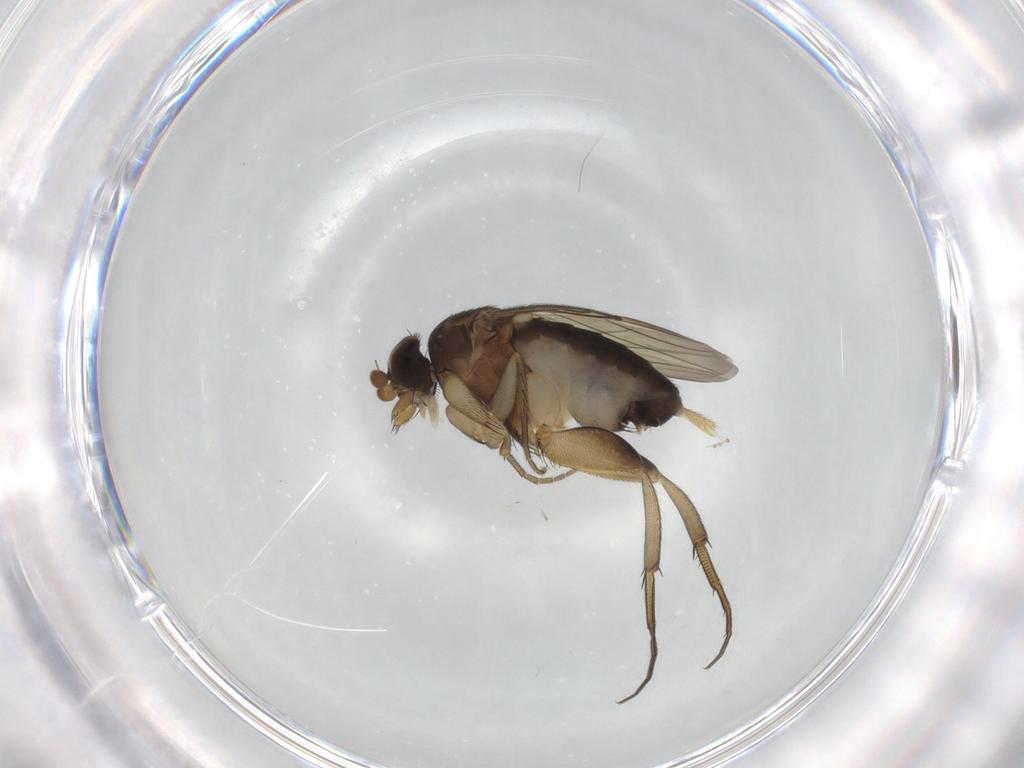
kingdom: Animalia
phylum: Arthropoda
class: Insecta
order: Diptera
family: Phoridae
